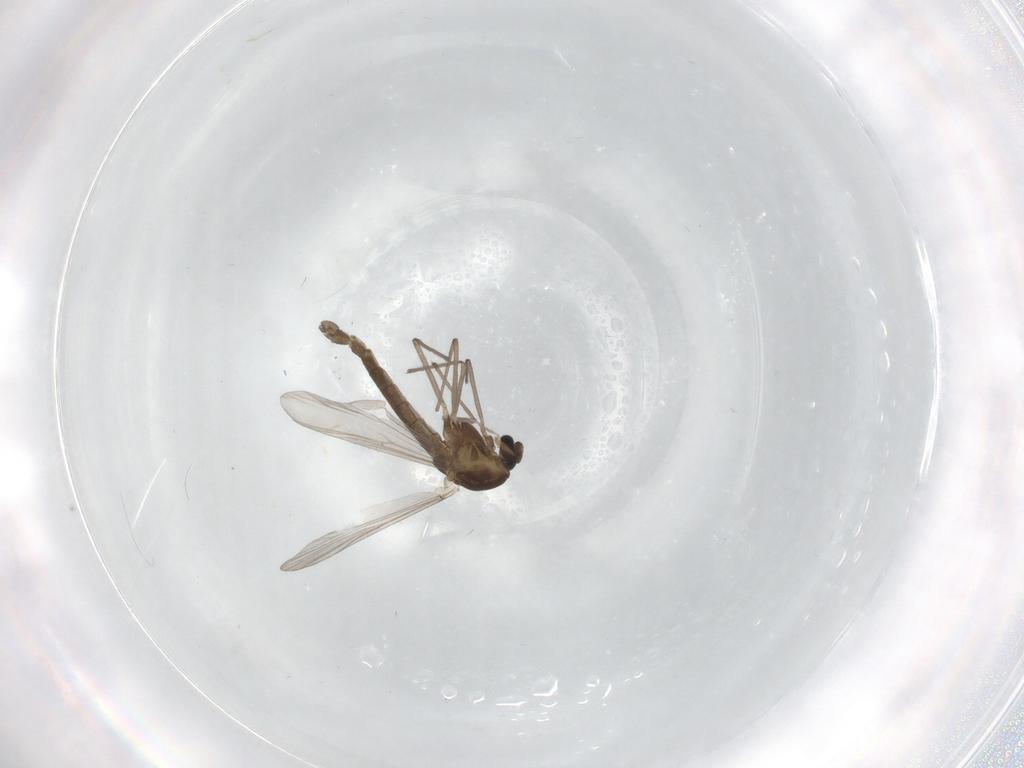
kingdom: Animalia
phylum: Arthropoda
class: Insecta
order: Diptera
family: Chironomidae
